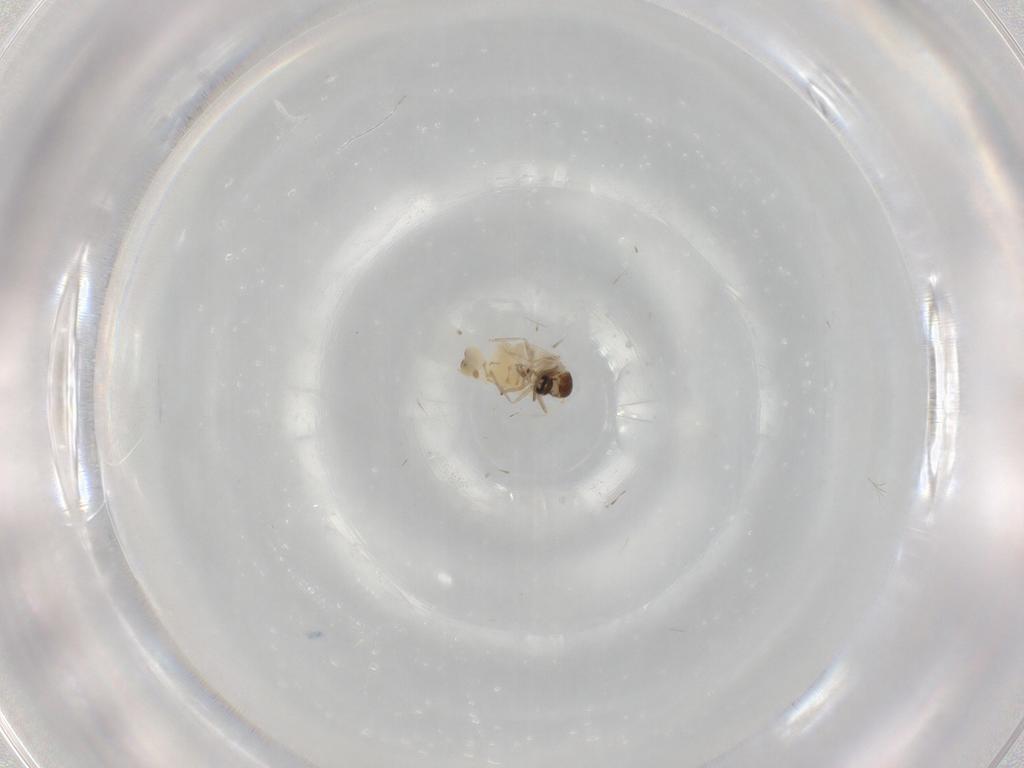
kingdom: Animalia
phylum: Arthropoda
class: Insecta
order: Diptera
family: Cecidomyiidae
